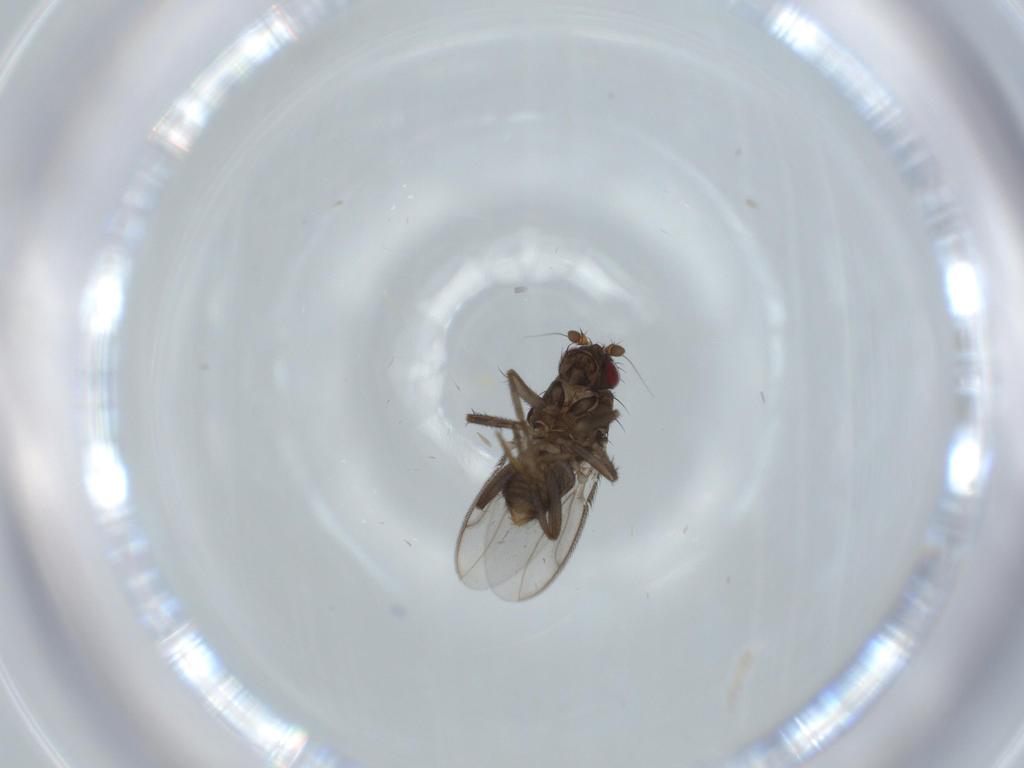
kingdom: Animalia
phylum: Arthropoda
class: Insecta
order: Diptera
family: Sphaeroceridae
